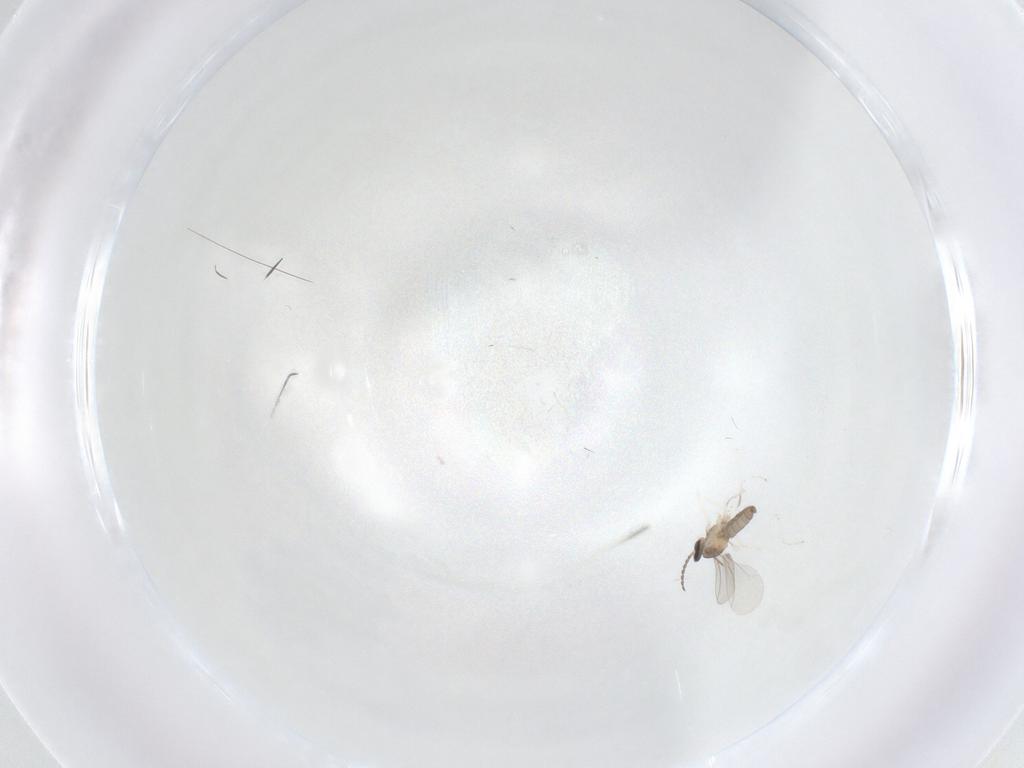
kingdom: Animalia
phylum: Arthropoda
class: Insecta
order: Diptera
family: Cecidomyiidae
